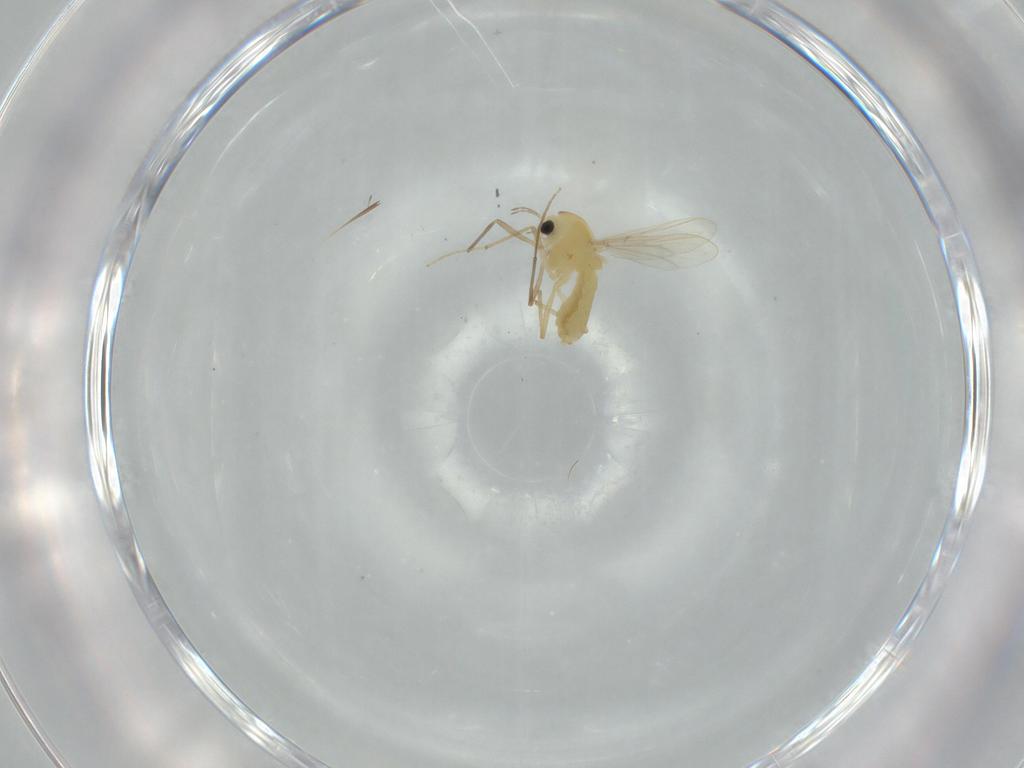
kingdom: Animalia
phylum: Arthropoda
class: Insecta
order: Diptera
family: Chironomidae
